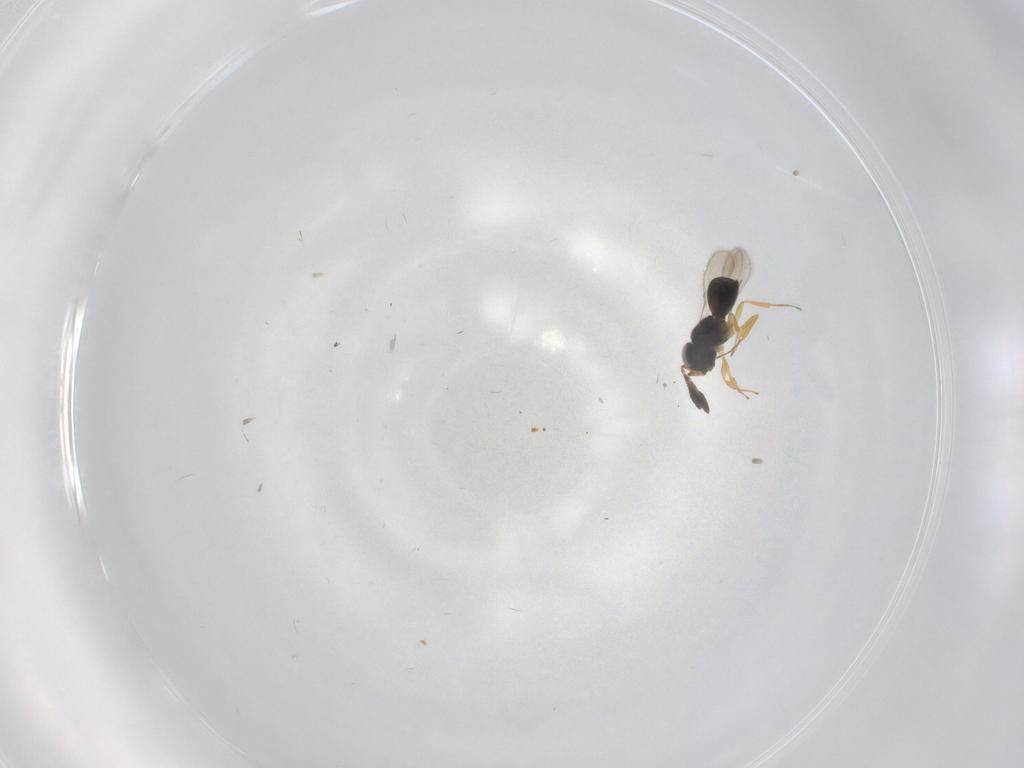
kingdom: Animalia
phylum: Arthropoda
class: Insecta
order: Hymenoptera
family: Scelionidae
